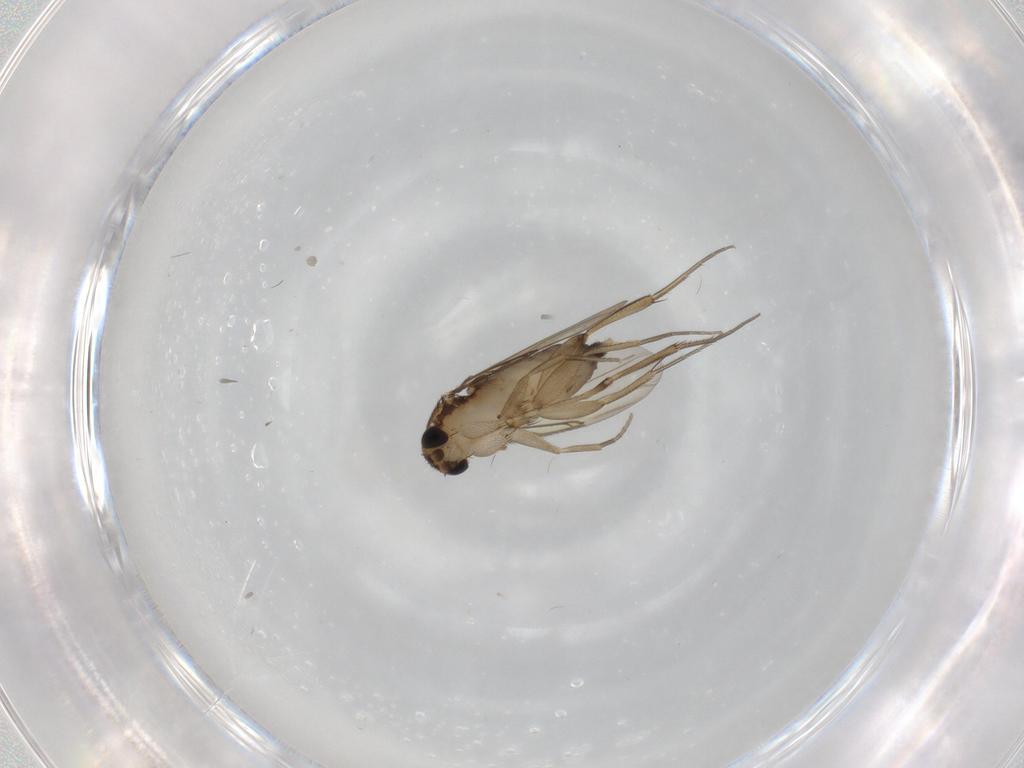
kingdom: Animalia
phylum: Arthropoda
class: Insecta
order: Diptera
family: Phoridae
